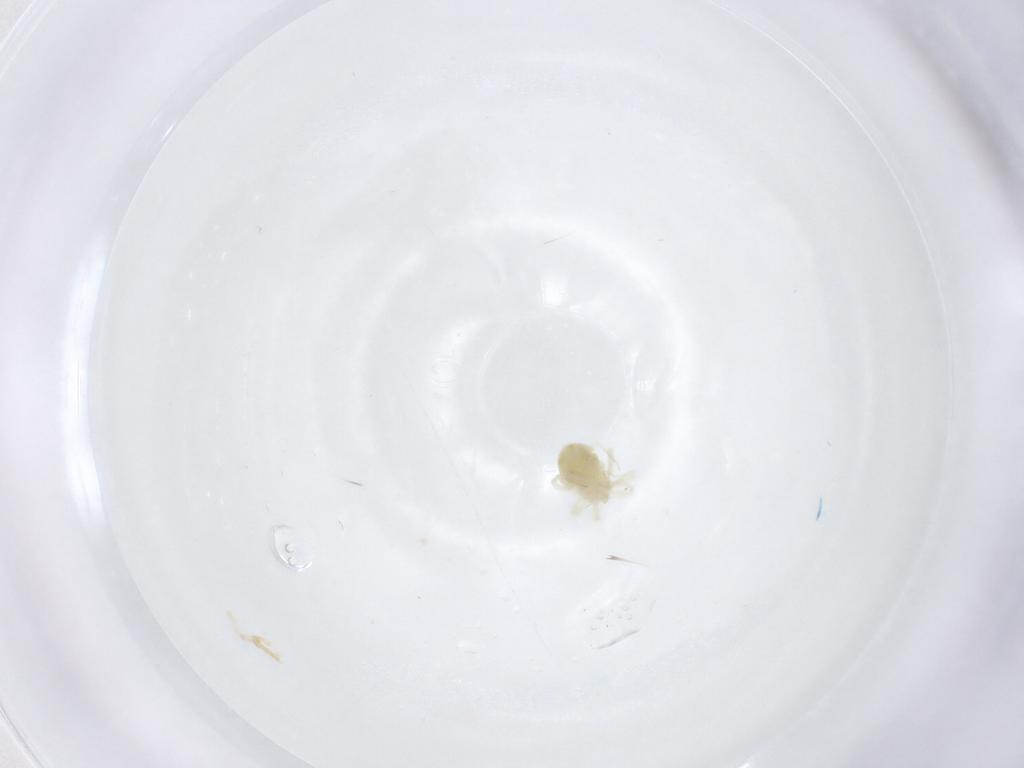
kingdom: Animalia
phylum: Arthropoda
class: Arachnida
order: Trombidiformes
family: Anystidae
